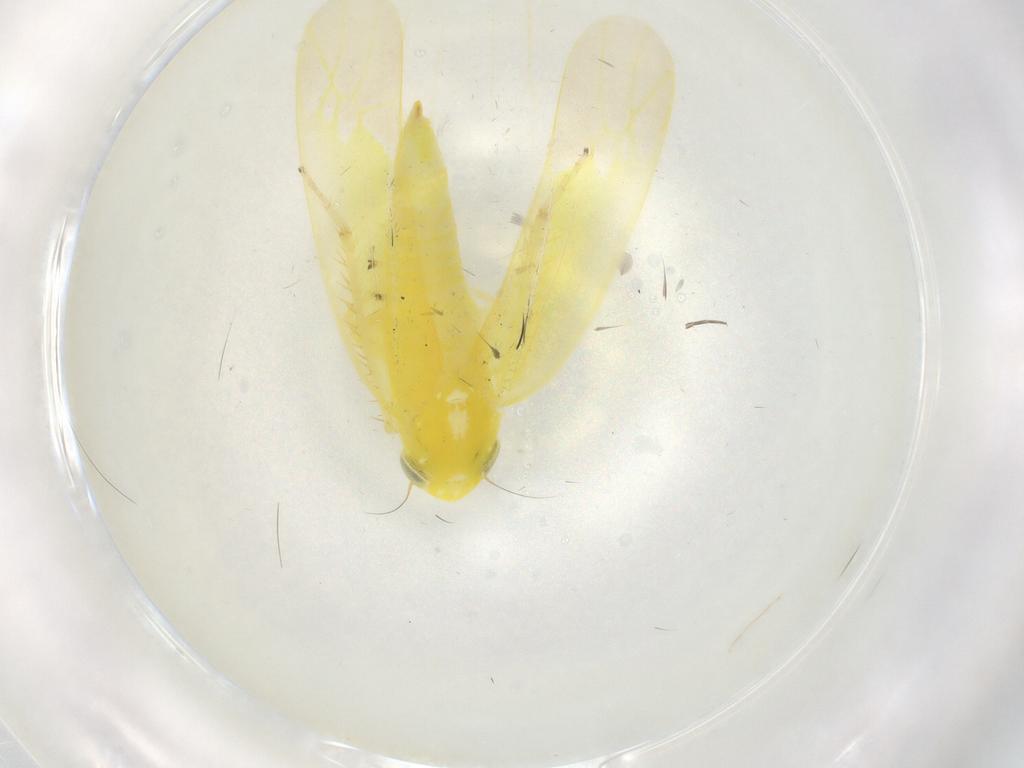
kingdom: Animalia
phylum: Arthropoda
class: Insecta
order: Hemiptera
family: Cicadellidae
